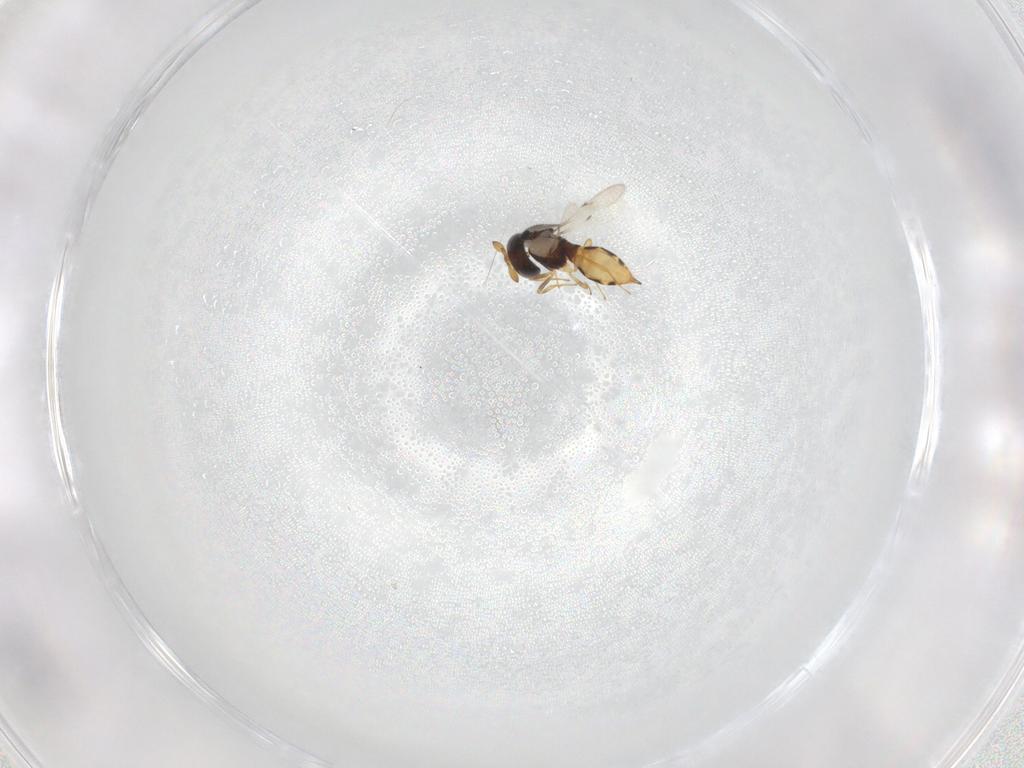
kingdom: Animalia
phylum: Arthropoda
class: Insecta
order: Hymenoptera
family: Scelionidae
